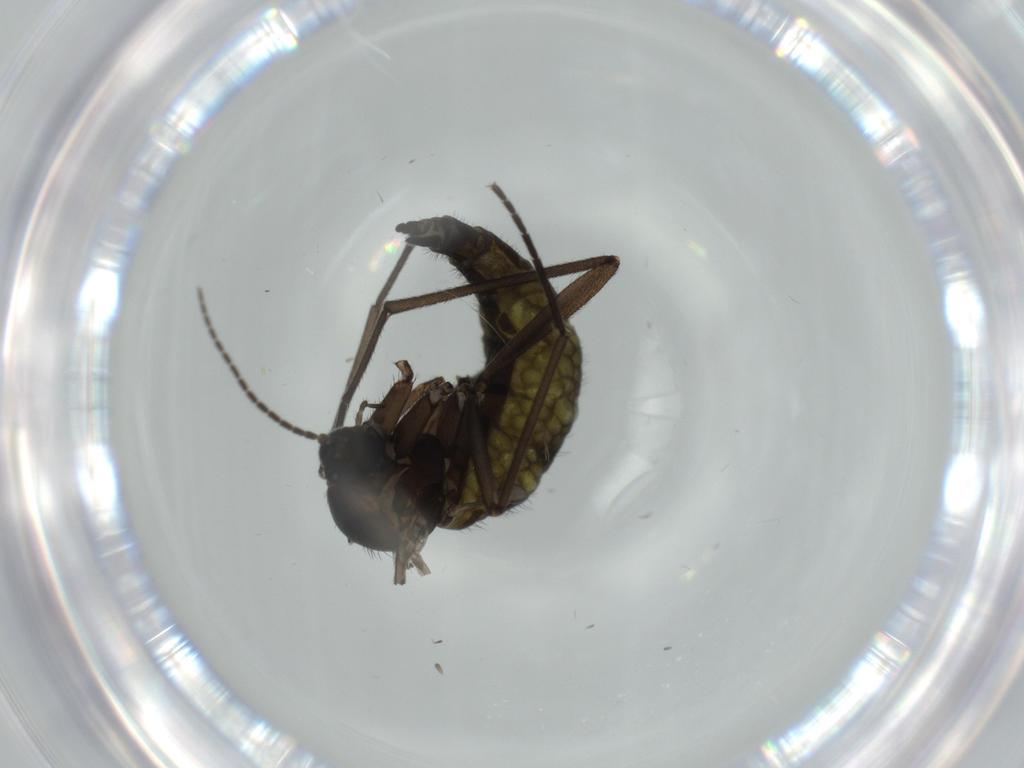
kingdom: Animalia
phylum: Arthropoda
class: Insecta
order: Diptera
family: Sciaridae
